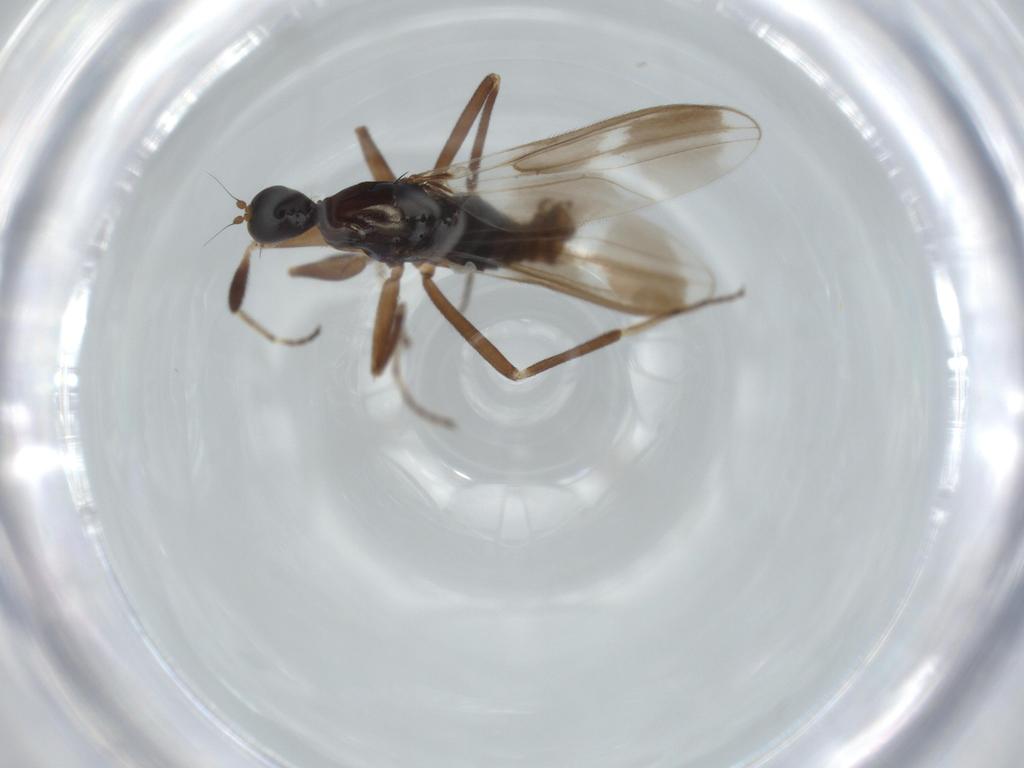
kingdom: Animalia
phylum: Arthropoda
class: Insecta
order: Diptera
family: Hybotidae
